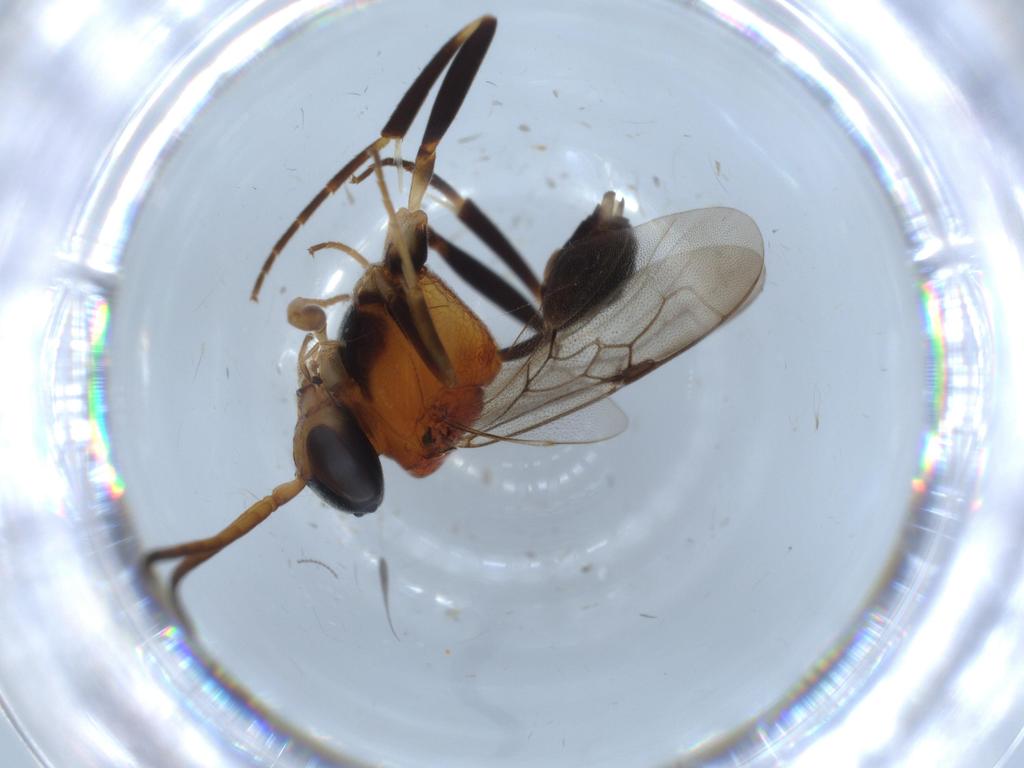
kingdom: Animalia
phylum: Arthropoda
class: Insecta
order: Hymenoptera
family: Evaniidae
